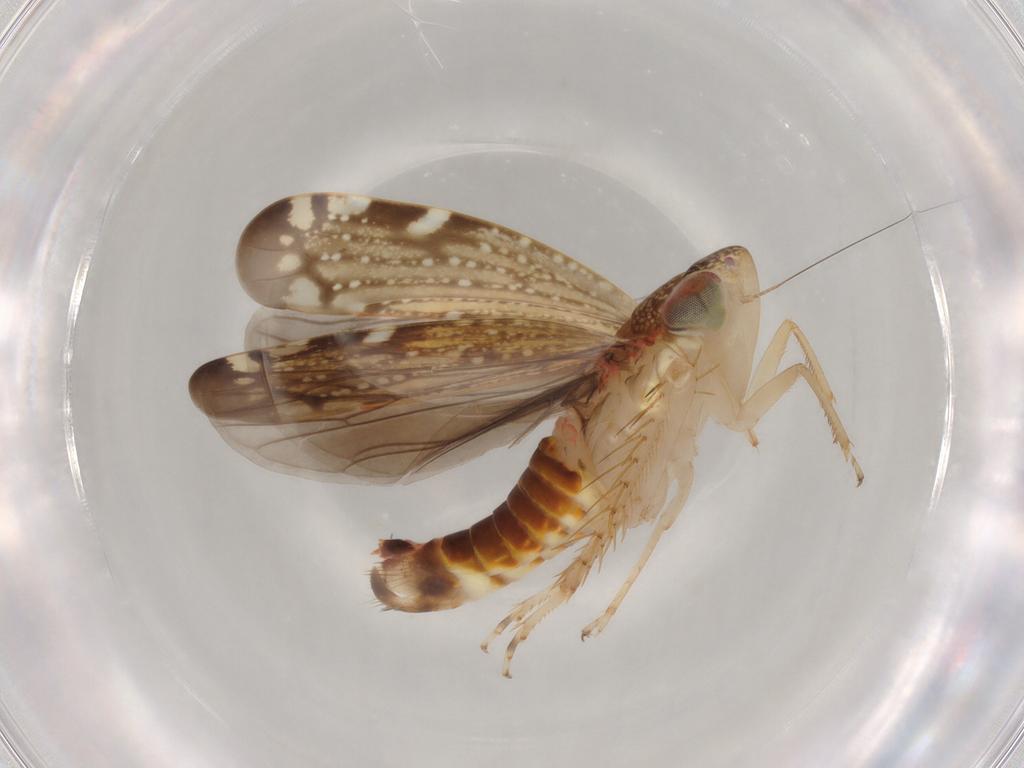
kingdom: Animalia
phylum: Arthropoda
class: Insecta
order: Hemiptera
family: Cicadellidae
